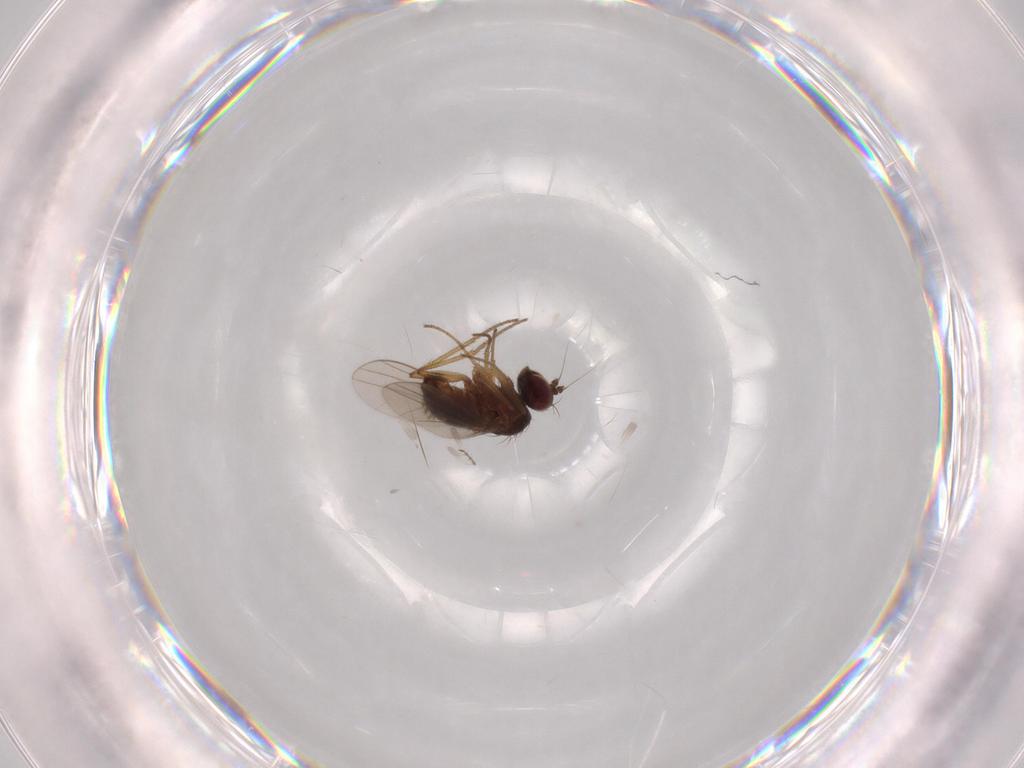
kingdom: Animalia
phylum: Arthropoda
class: Insecta
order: Diptera
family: Dolichopodidae
